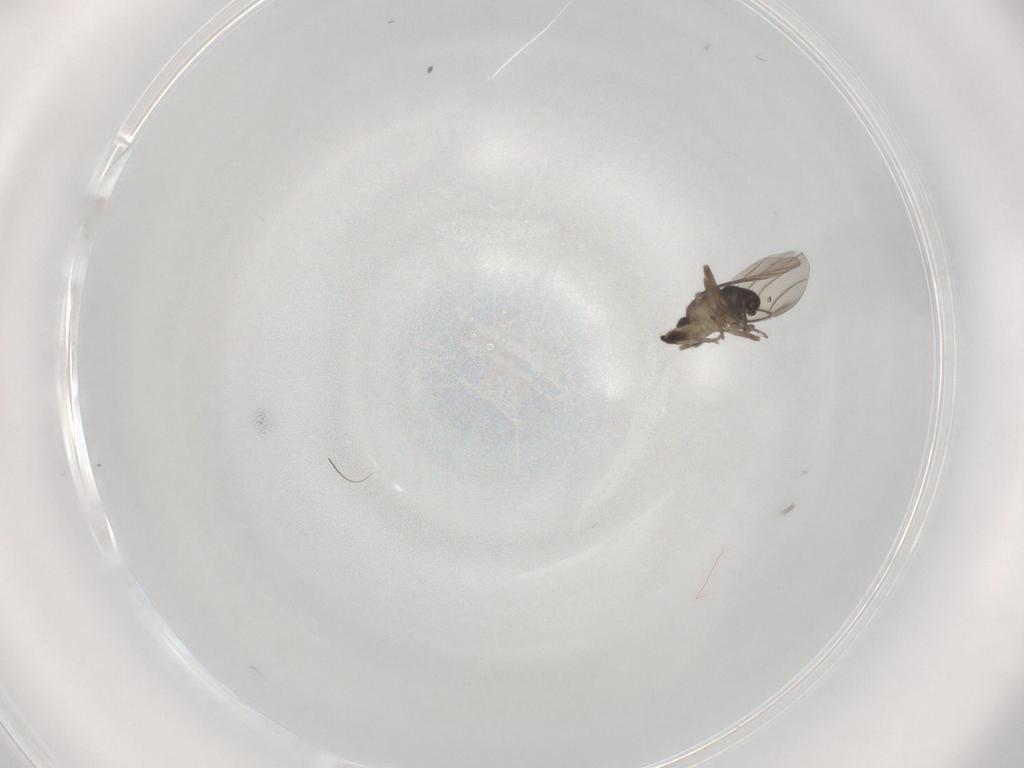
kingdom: Animalia
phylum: Arthropoda
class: Insecta
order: Diptera
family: Phoridae
